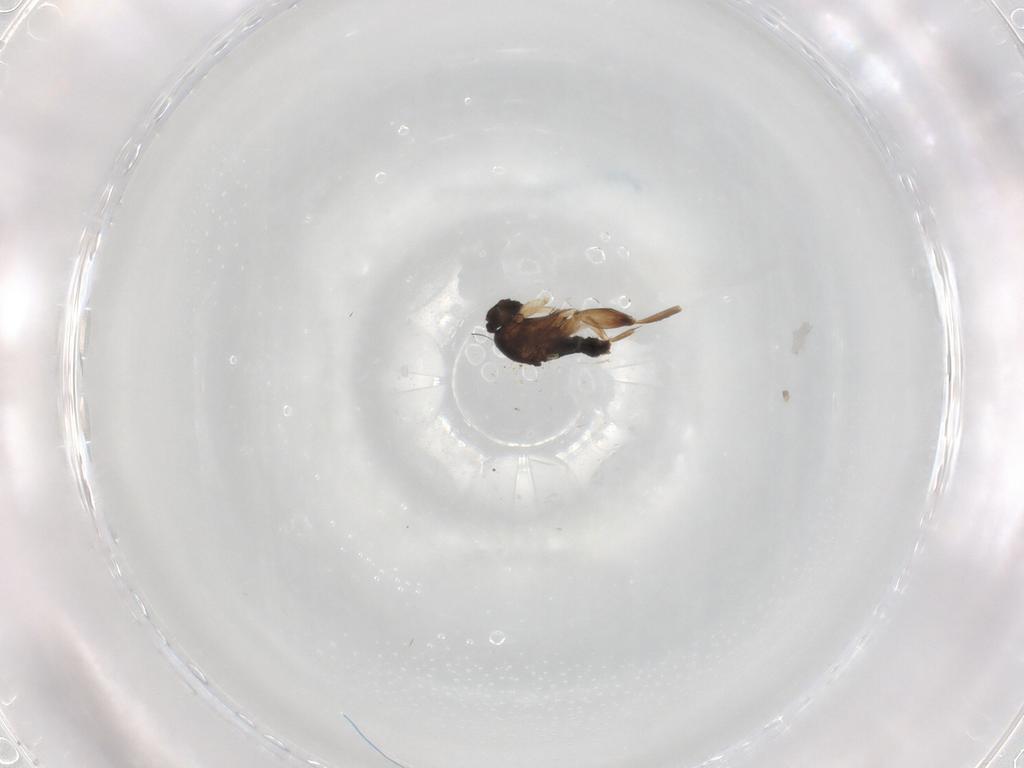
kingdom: Animalia
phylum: Arthropoda
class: Insecta
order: Diptera
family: Phoridae
